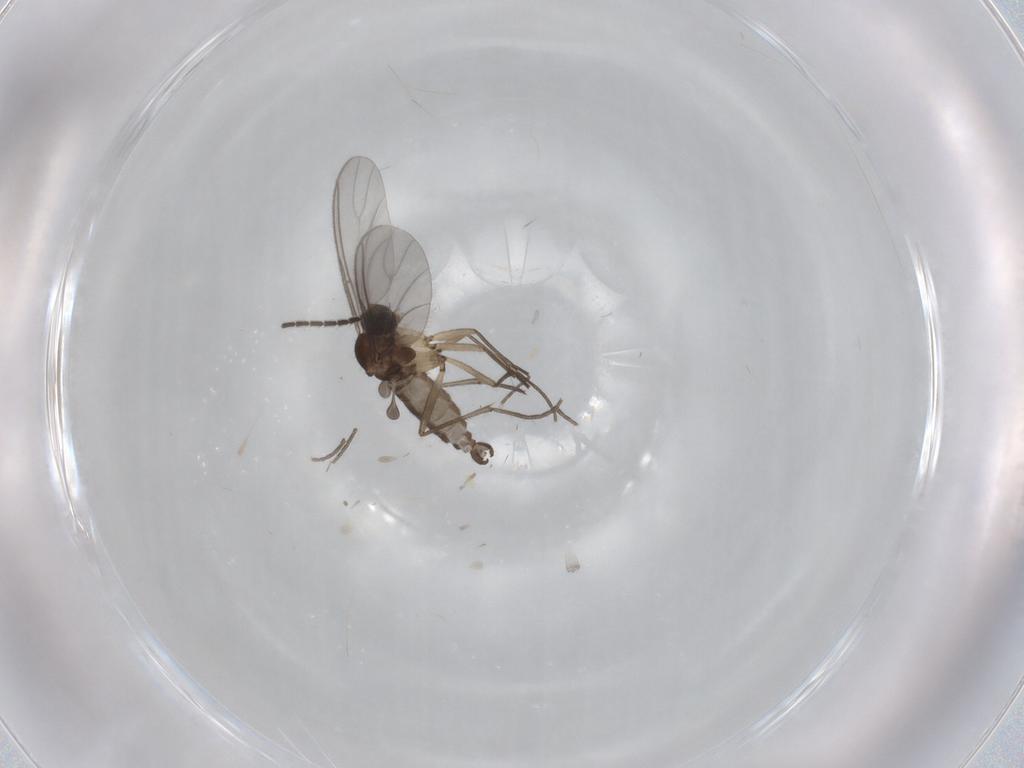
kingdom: Animalia
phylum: Arthropoda
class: Insecta
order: Diptera
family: Sciaridae
